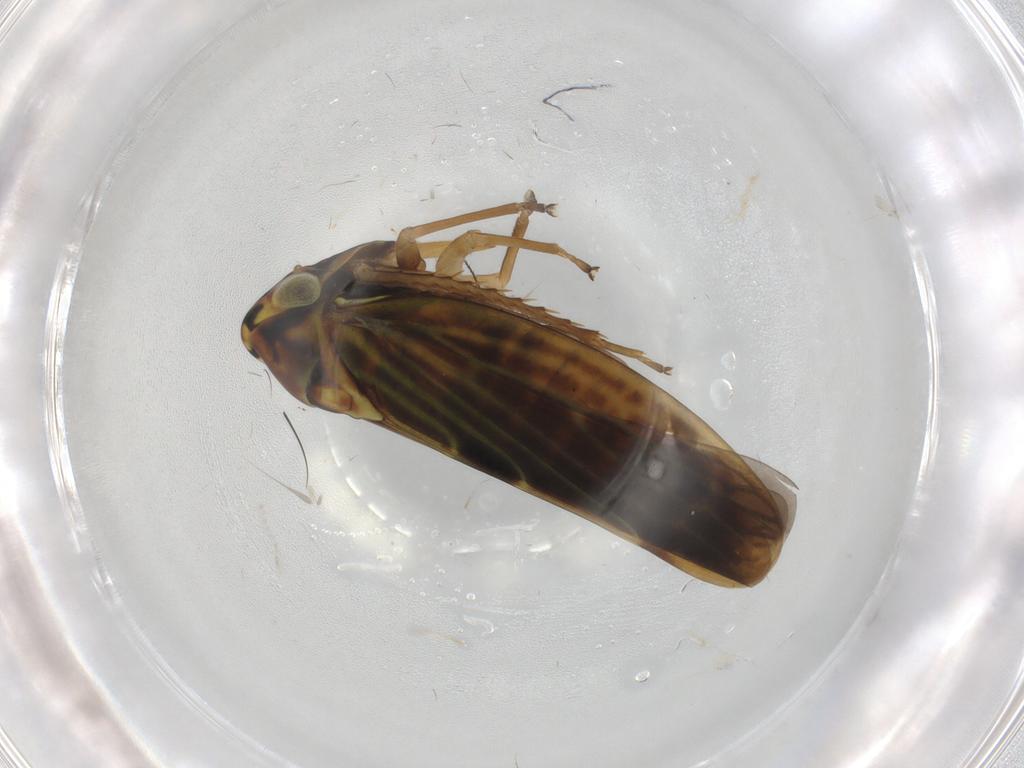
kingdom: Animalia
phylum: Arthropoda
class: Insecta
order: Hemiptera
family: Cicadellidae
